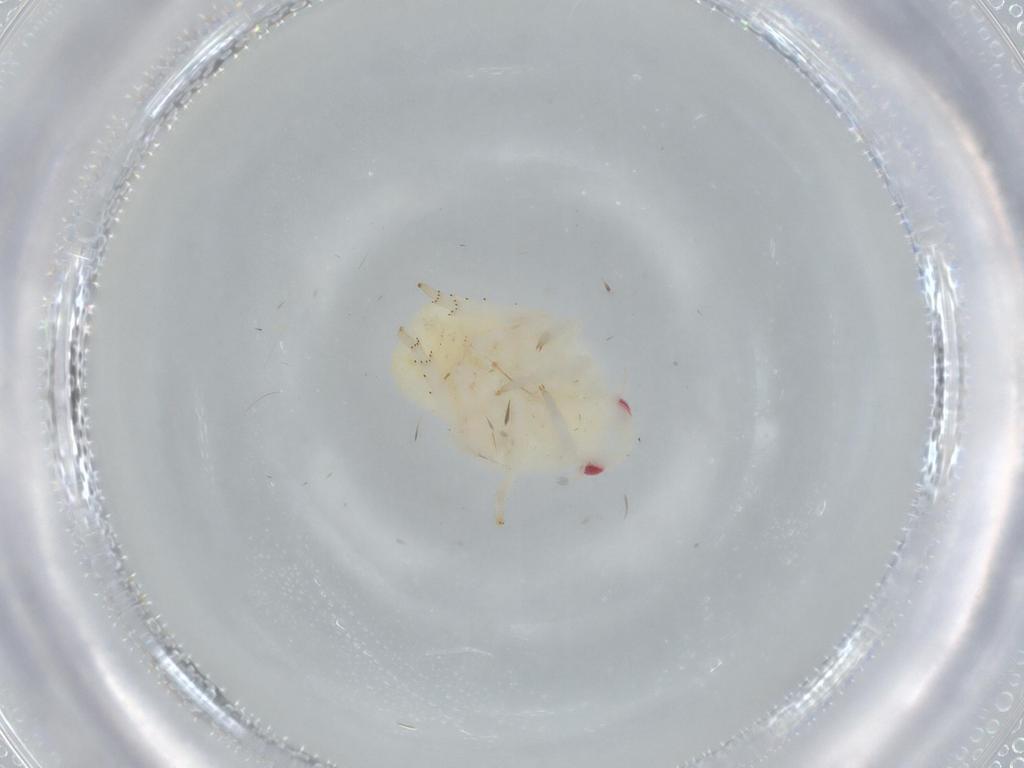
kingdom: Animalia
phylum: Arthropoda
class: Insecta
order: Hemiptera
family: Flatidae
